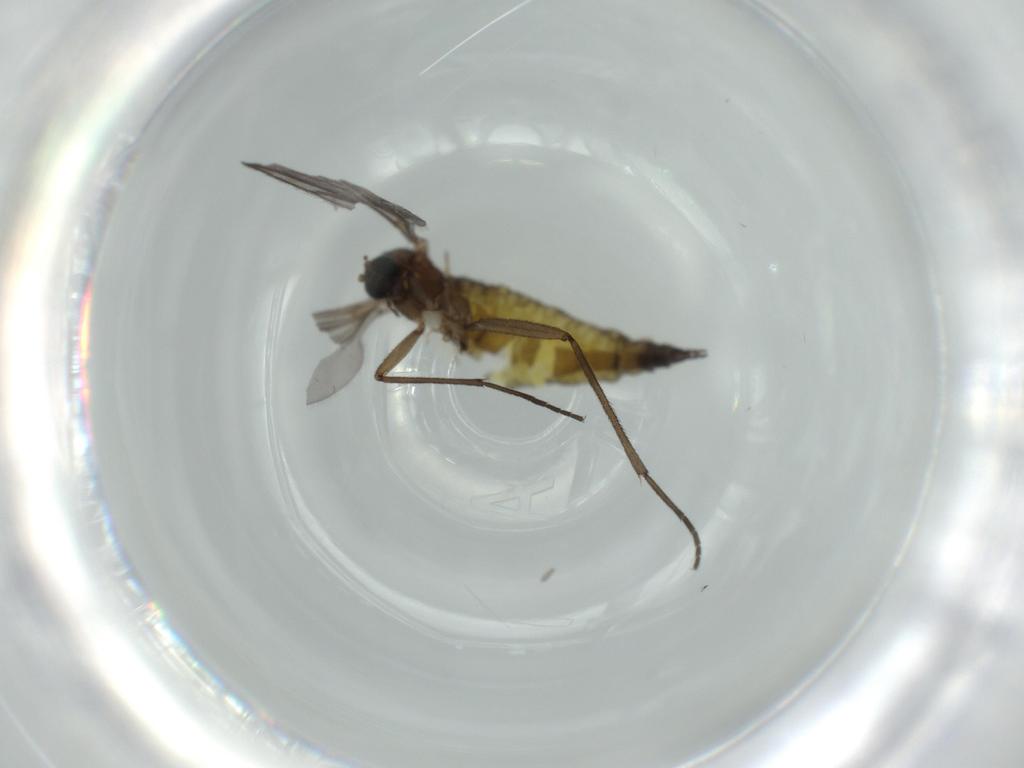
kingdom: Animalia
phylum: Arthropoda
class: Insecta
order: Diptera
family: Sciaridae
